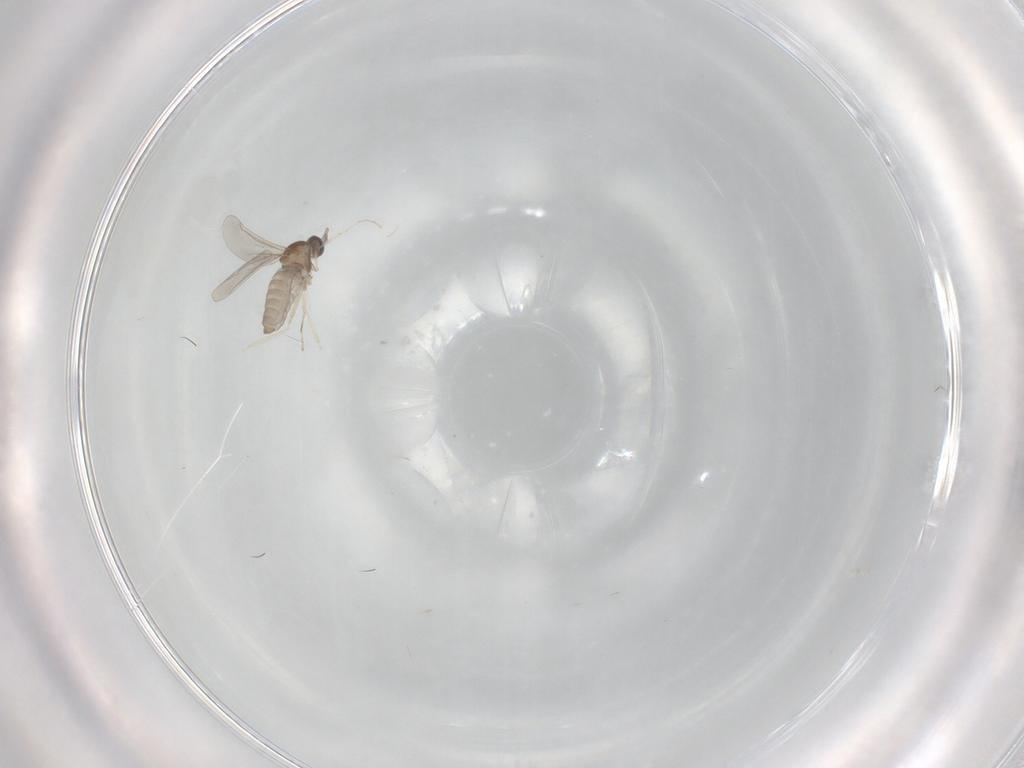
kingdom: Animalia
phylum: Arthropoda
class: Insecta
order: Diptera
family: Cecidomyiidae
